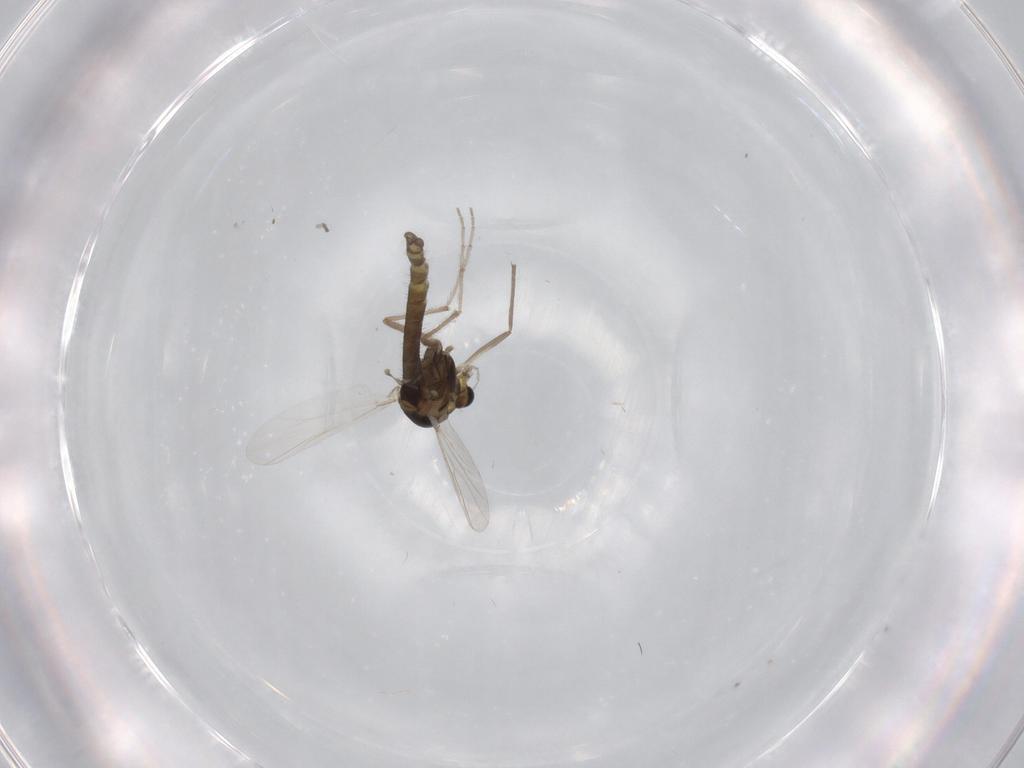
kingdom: Animalia
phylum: Arthropoda
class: Insecta
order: Diptera
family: Chironomidae
